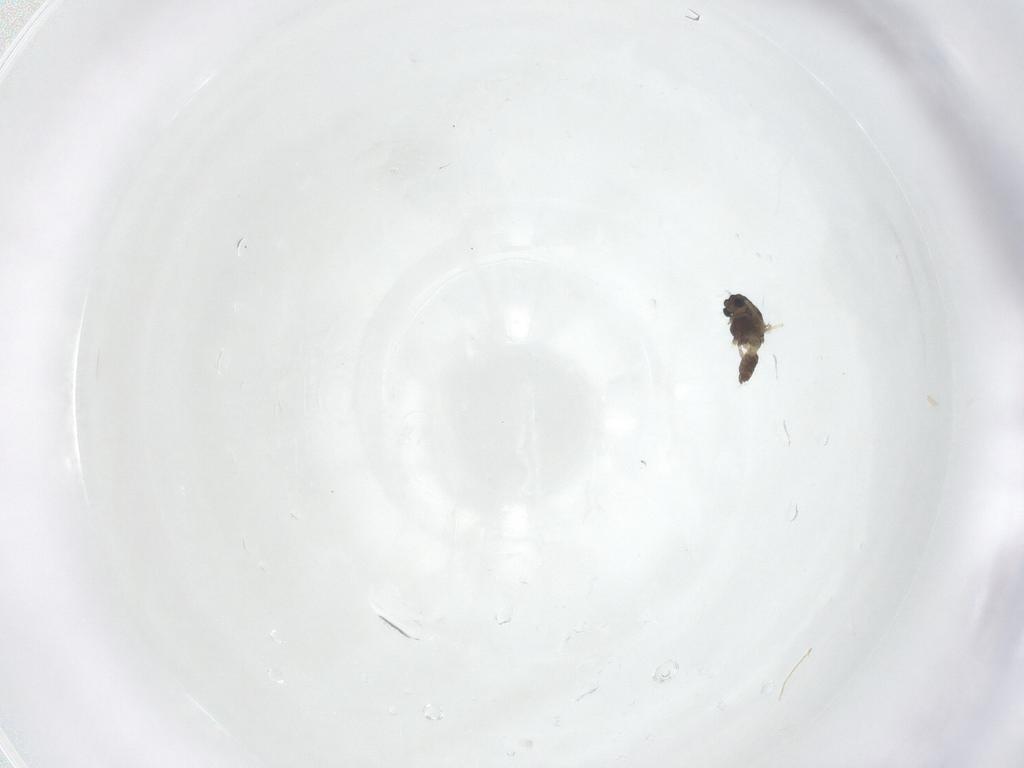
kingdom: Animalia
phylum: Arthropoda
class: Insecta
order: Diptera
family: Chironomidae
